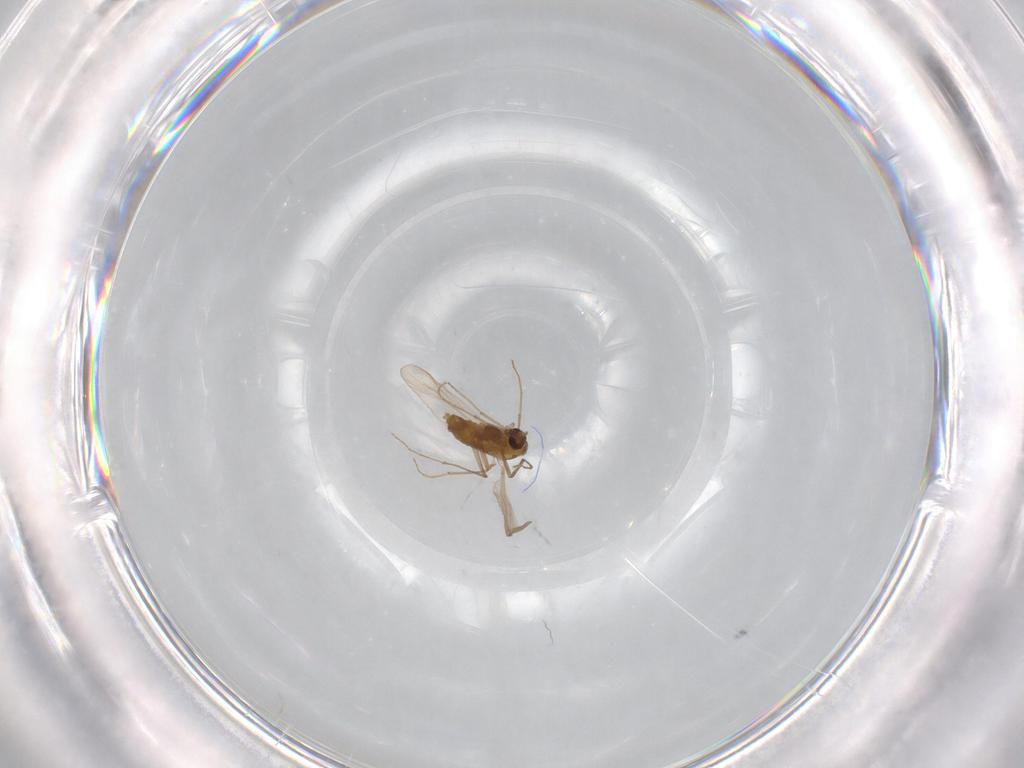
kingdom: Animalia
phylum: Arthropoda
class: Insecta
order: Diptera
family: Chironomidae
